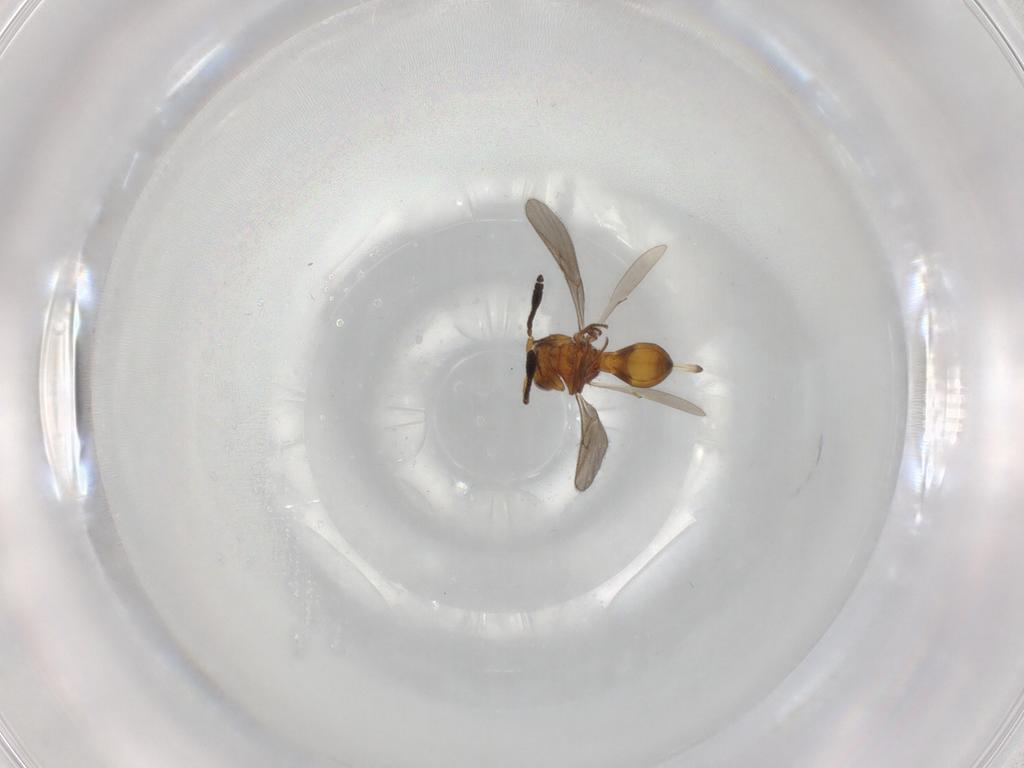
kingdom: Animalia
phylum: Arthropoda
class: Insecta
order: Hymenoptera
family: Scelionidae
